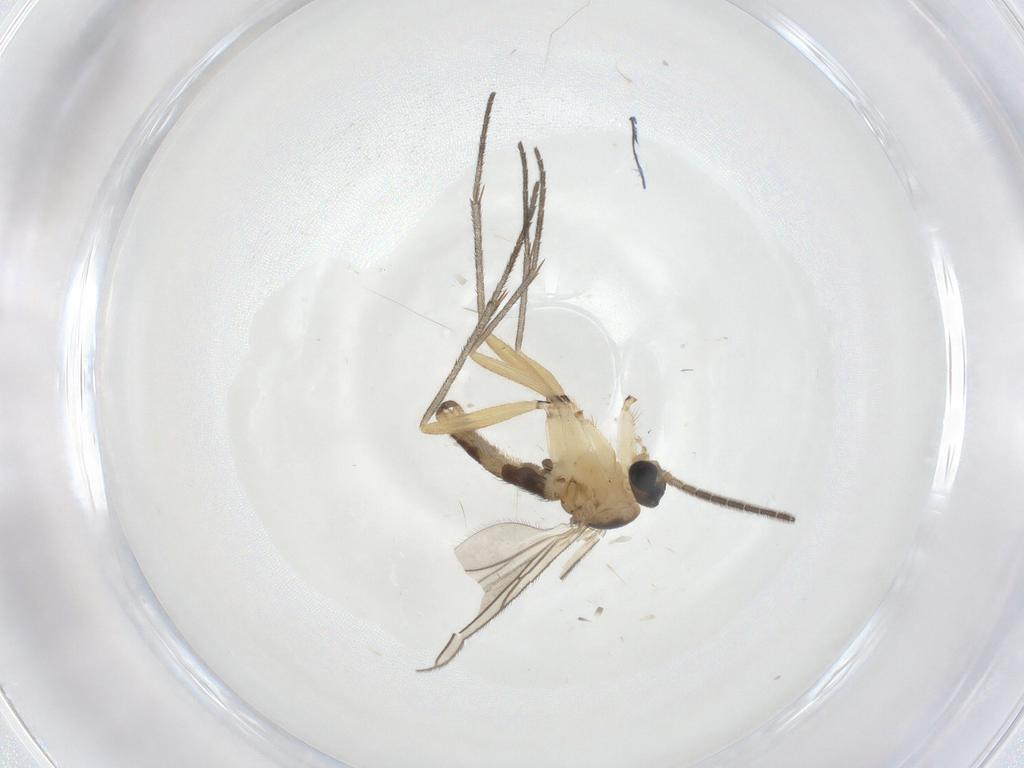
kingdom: Animalia
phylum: Arthropoda
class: Insecta
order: Diptera
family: Sciaridae
